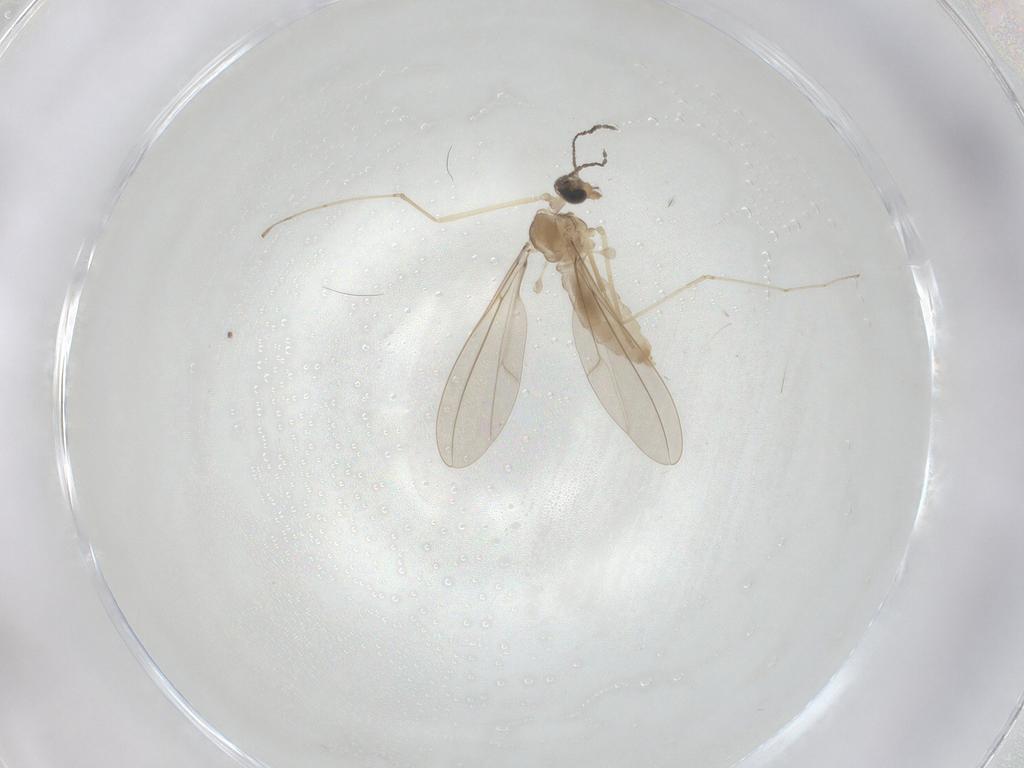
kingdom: Animalia
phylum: Arthropoda
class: Insecta
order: Diptera
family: Cecidomyiidae
